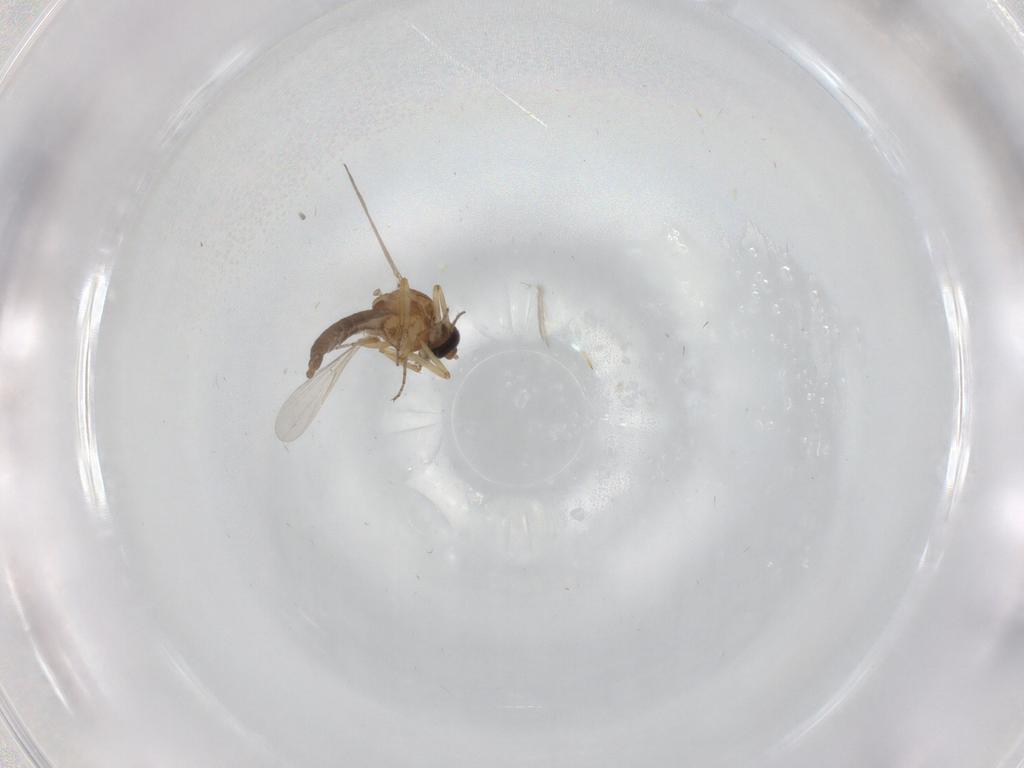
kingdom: Animalia
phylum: Arthropoda
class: Insecta
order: Diptera
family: Ceratopogonidae
